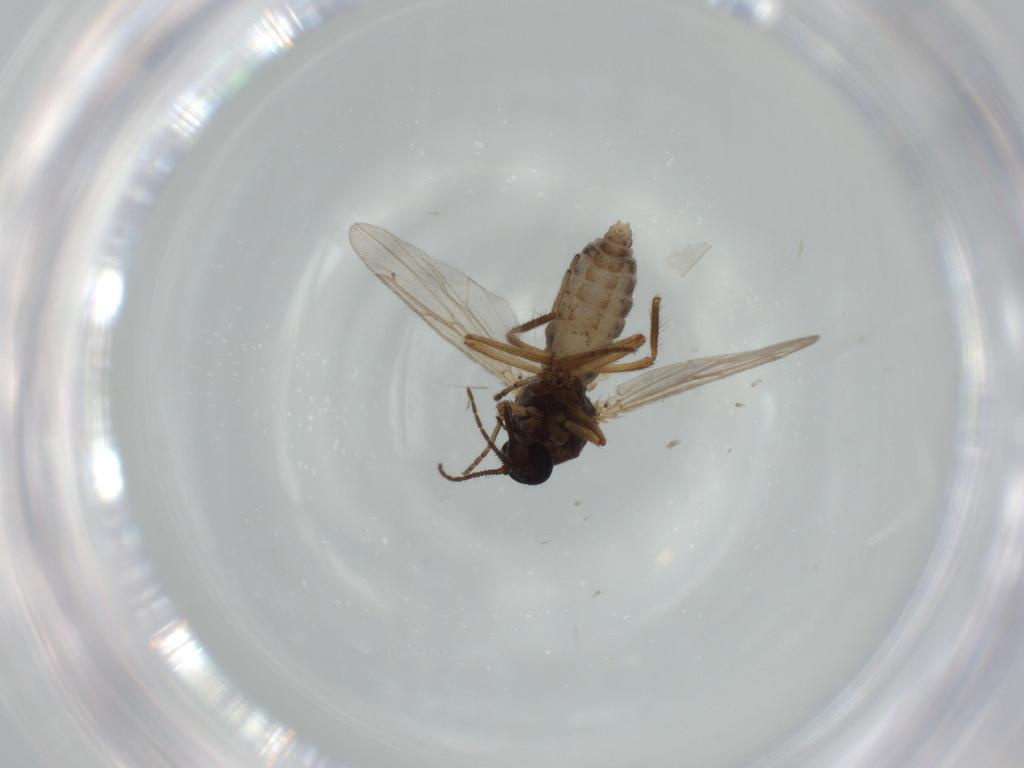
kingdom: Animalia
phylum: Arthropoda
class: Insecta
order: Diptera
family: Ceratopogonidae
